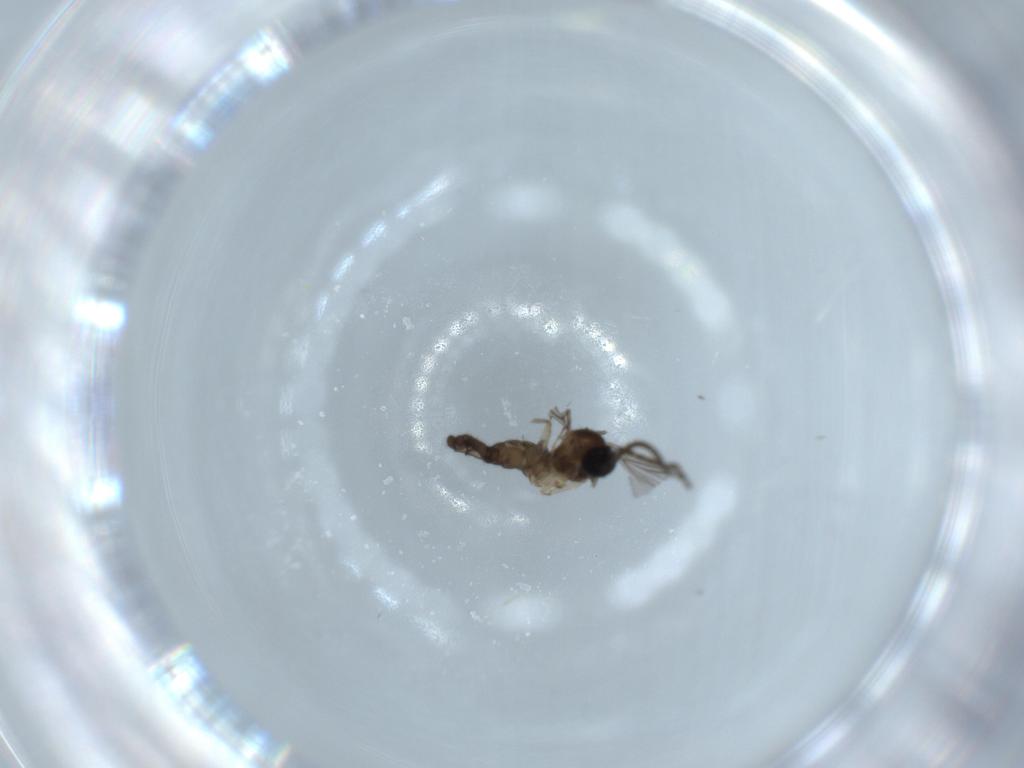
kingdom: Animalia
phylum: Arthropoda
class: Insecta
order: Diptera
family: Sciaridae
